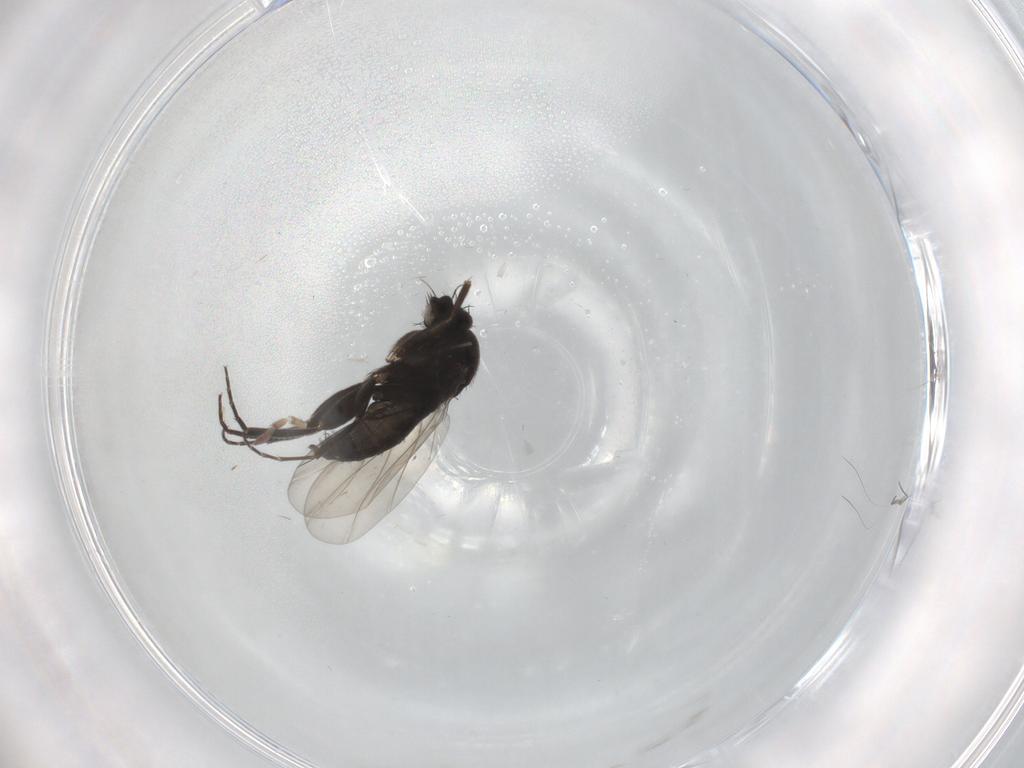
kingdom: Animalia
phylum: Arthropoda
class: Insecta
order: Diptera
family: Phoridae
